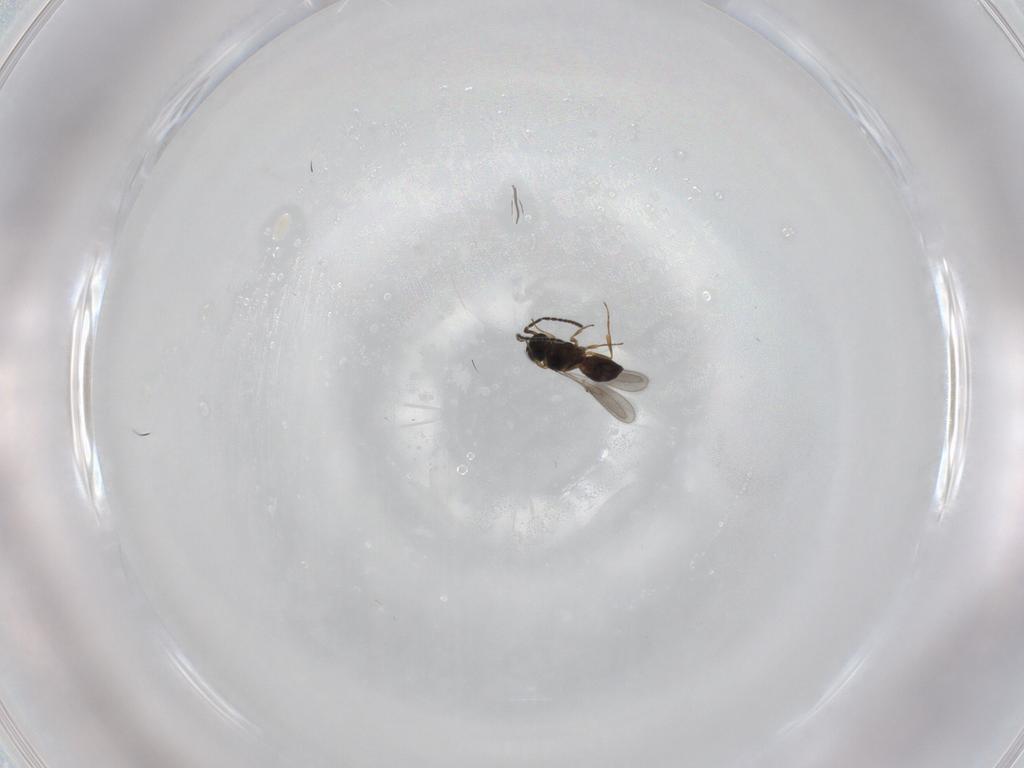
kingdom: Animalia
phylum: Arthropoda
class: Insecta
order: Hymenoptera
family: Scelionidae
